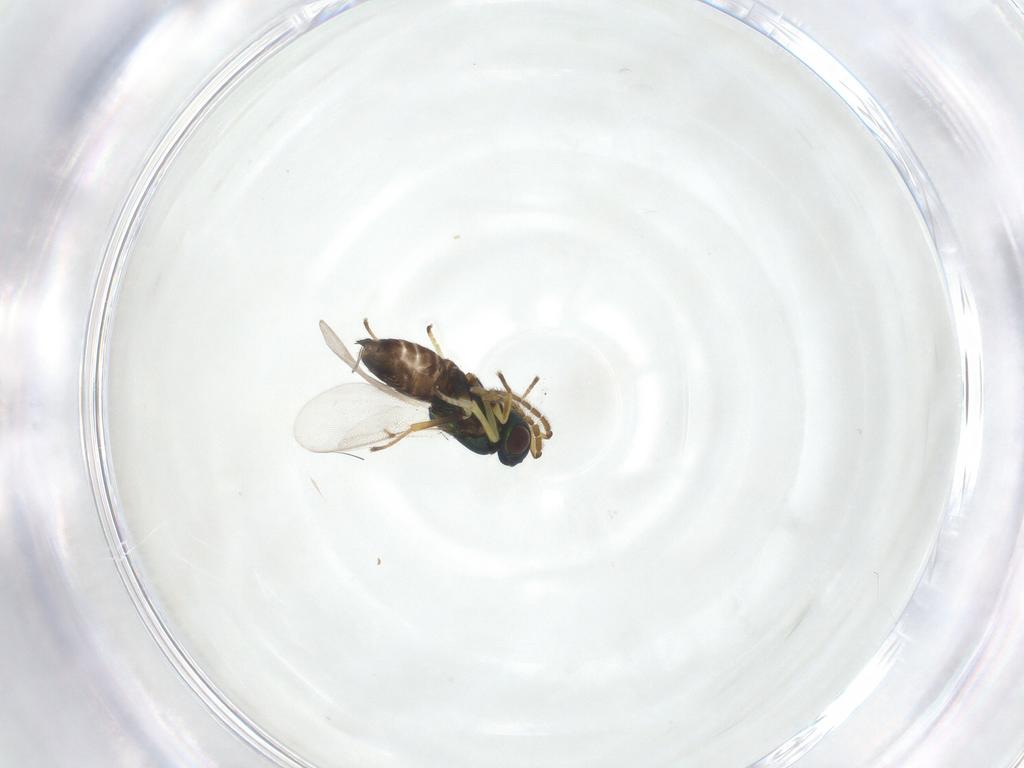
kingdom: Animalia
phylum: Arthropoda
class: Insecta
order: Hymenoptera
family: Encyrtidae
